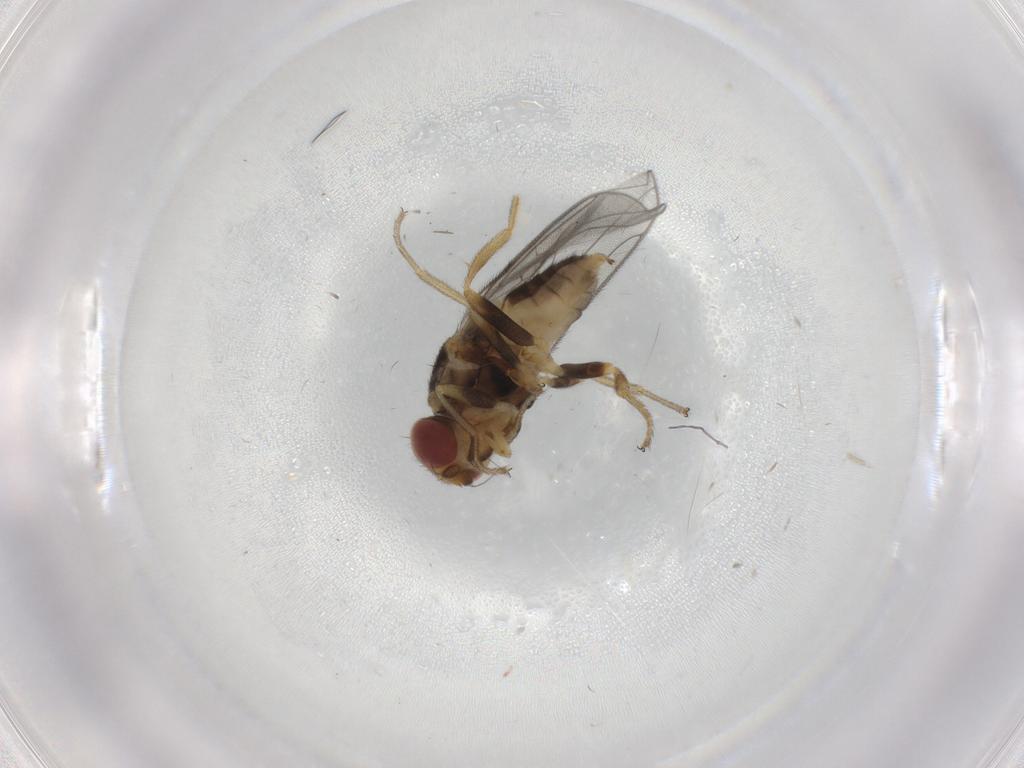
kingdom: Animalia
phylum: Arthropoda
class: Insecta
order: Diptera
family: Chloropidae
